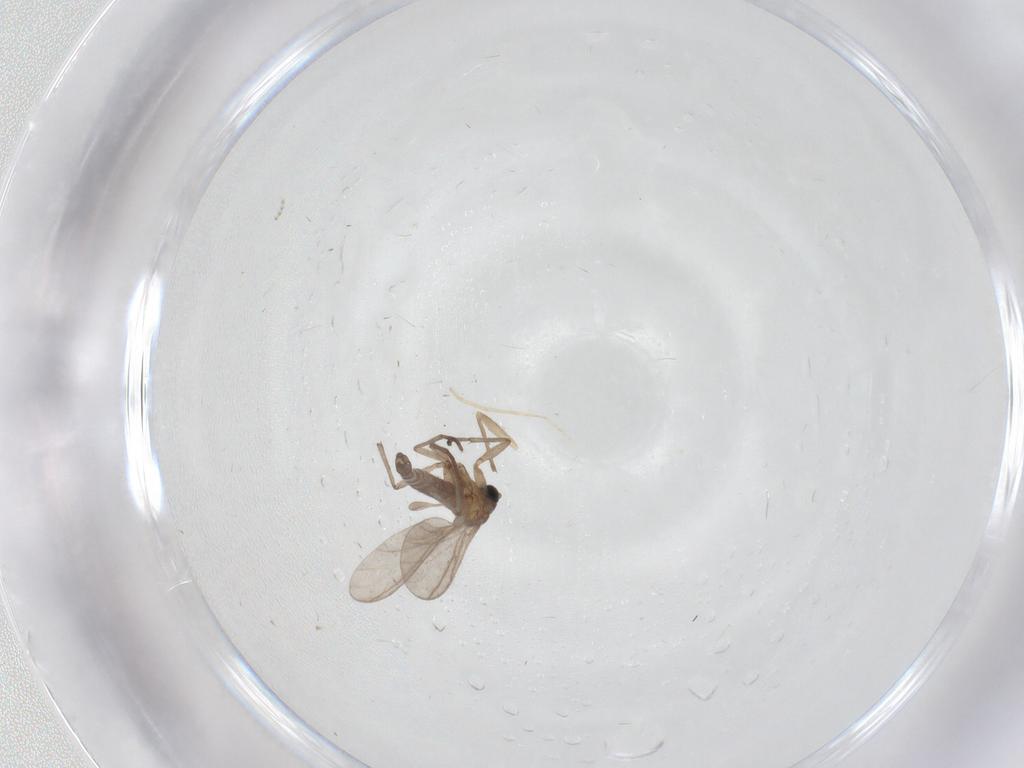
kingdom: Animalia
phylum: Arthropoda
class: Insecta
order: Diptera
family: Sciaridae
